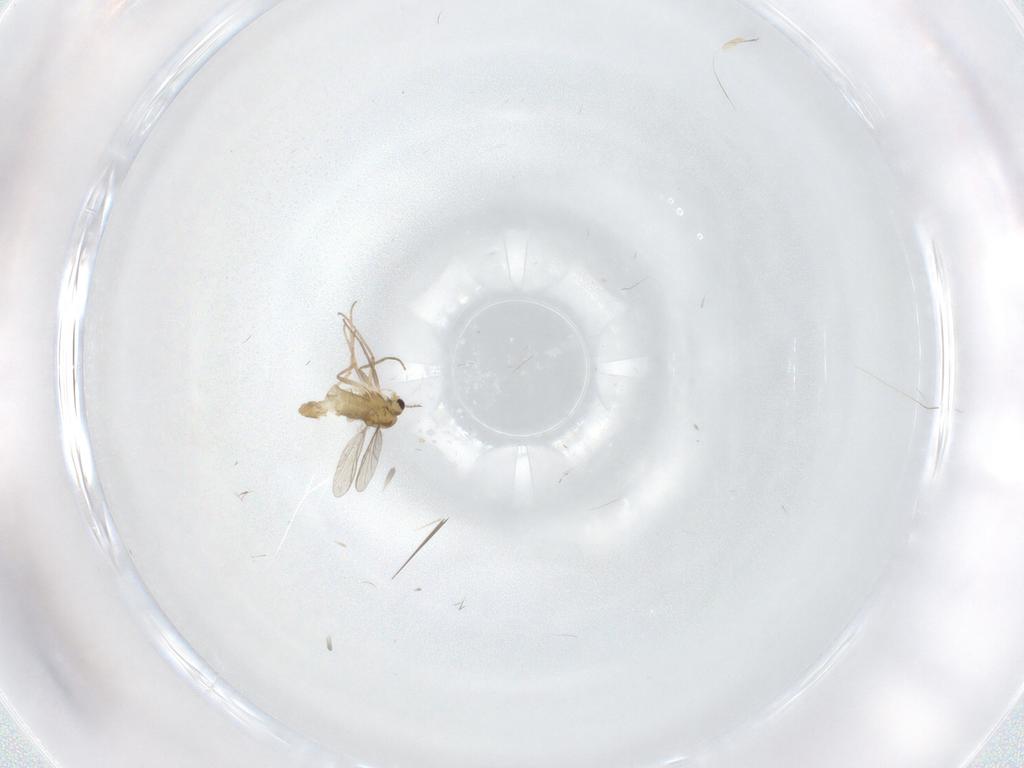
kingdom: Animalia
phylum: Arthropoda
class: Insecta
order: Diptera
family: Chironomidae
